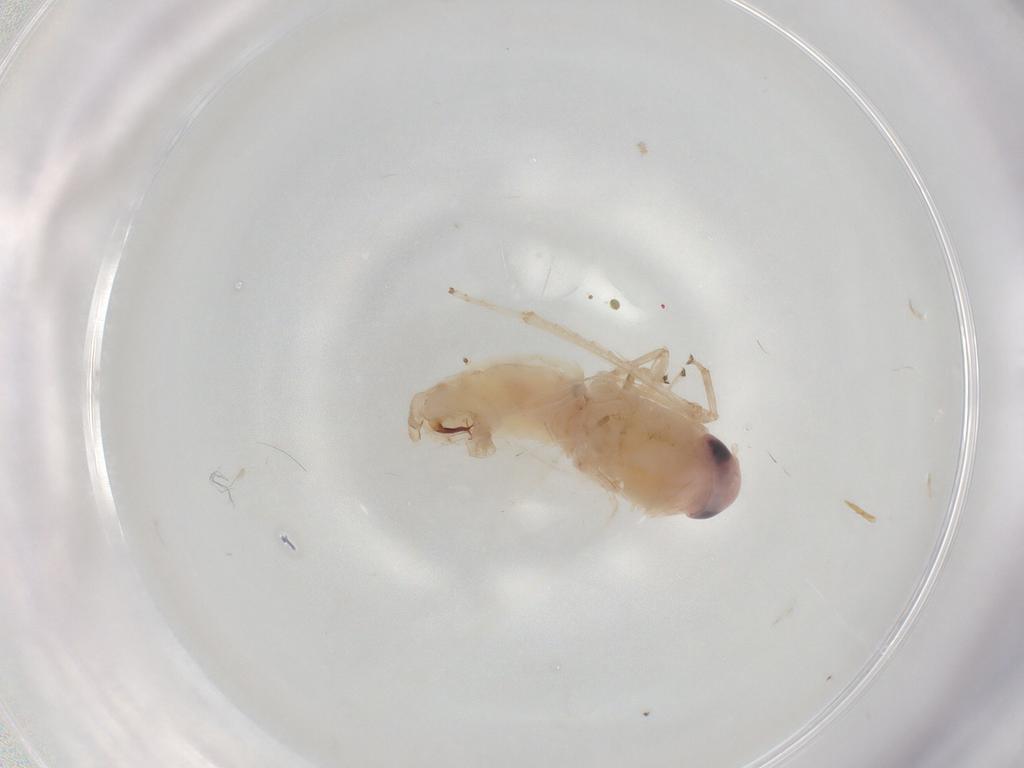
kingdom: Animalia
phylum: Arthropoda
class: Insecta
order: Hemiptera
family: Cicadellidae
